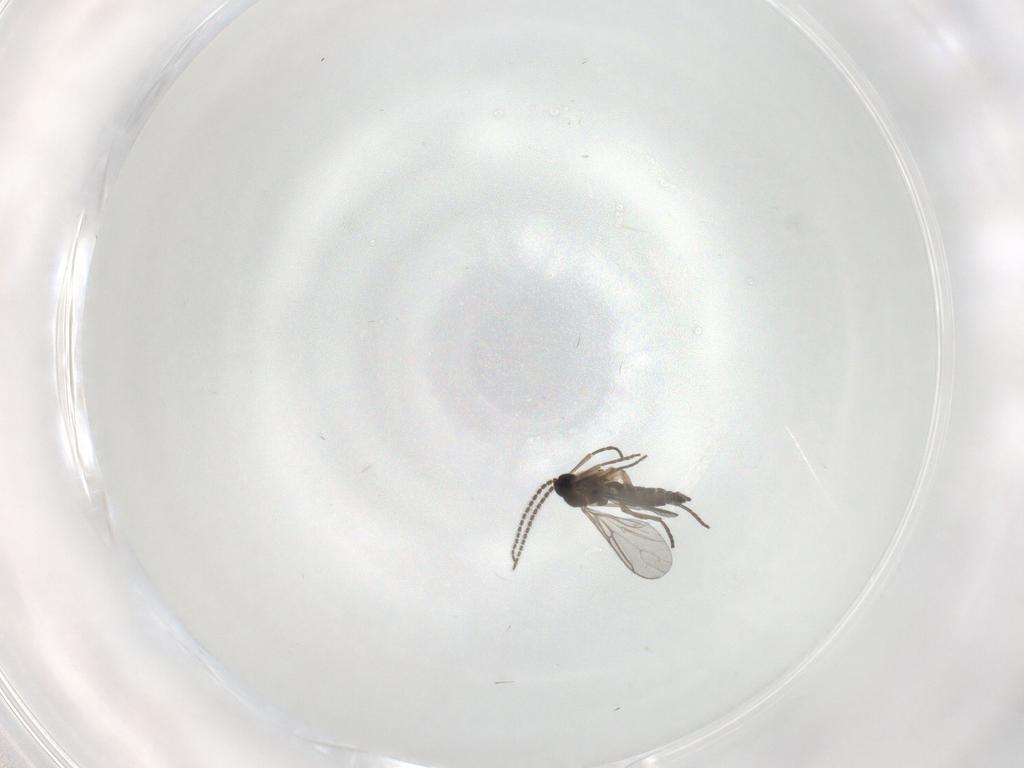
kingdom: Animalia
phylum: Arthropoda
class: Insecta
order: Diptera
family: Sciaridae
